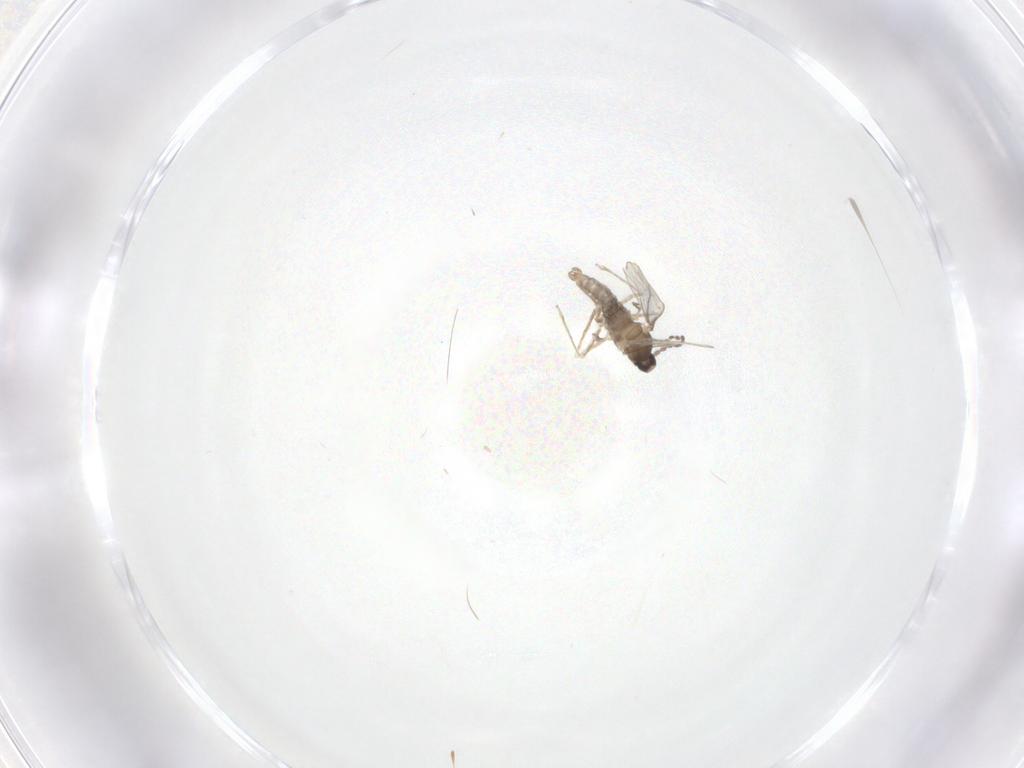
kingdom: Animalia
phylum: Arthropoda
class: Insecta
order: Diptera
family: Cecidomyiidae
